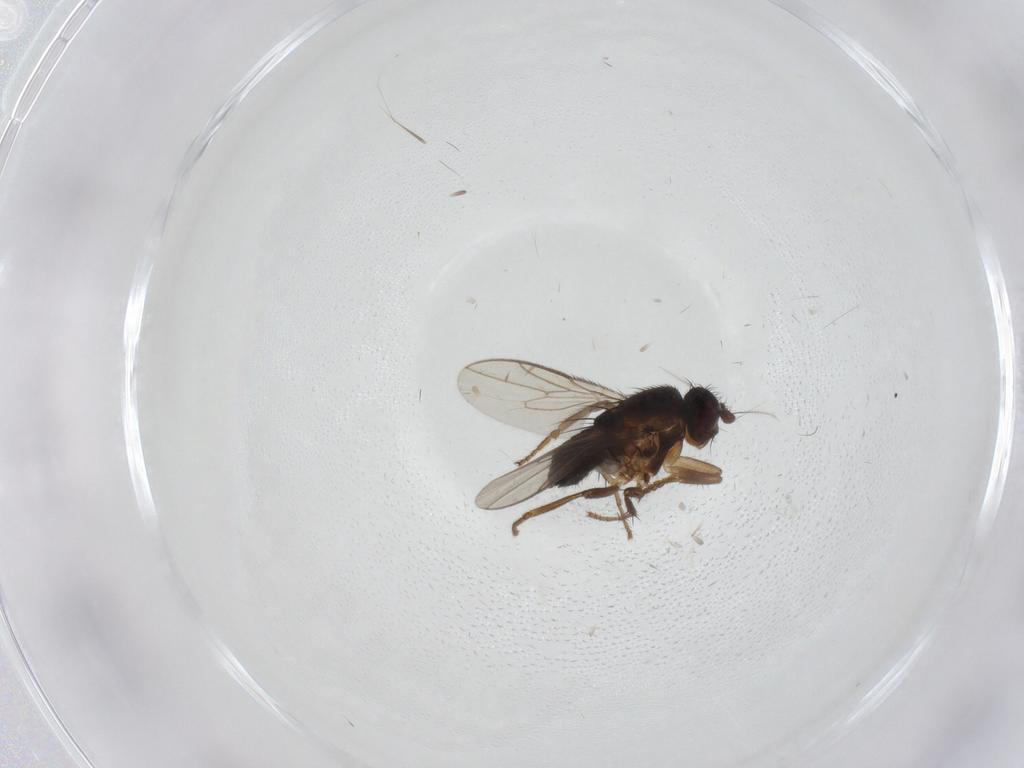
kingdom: Animalia
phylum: Arthropoda
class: Insecta
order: Diptera
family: Sphaeroceridae
